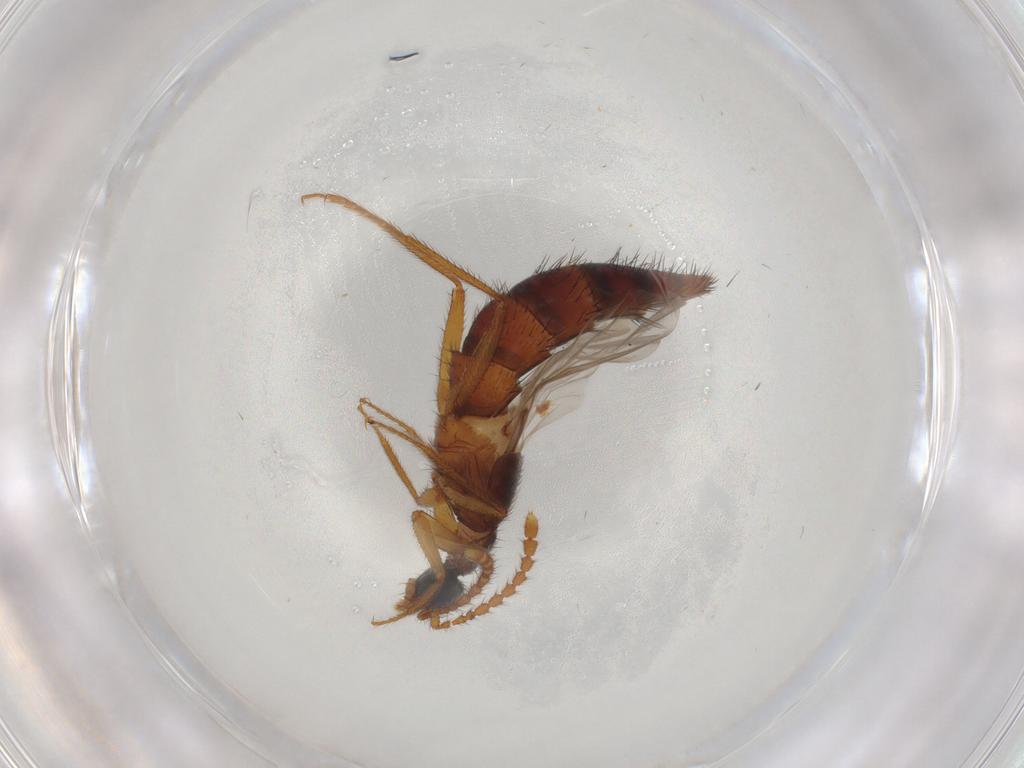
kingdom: Animalia
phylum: Arthropoda
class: Insecta
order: Coleoptera
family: Staphylinidae
